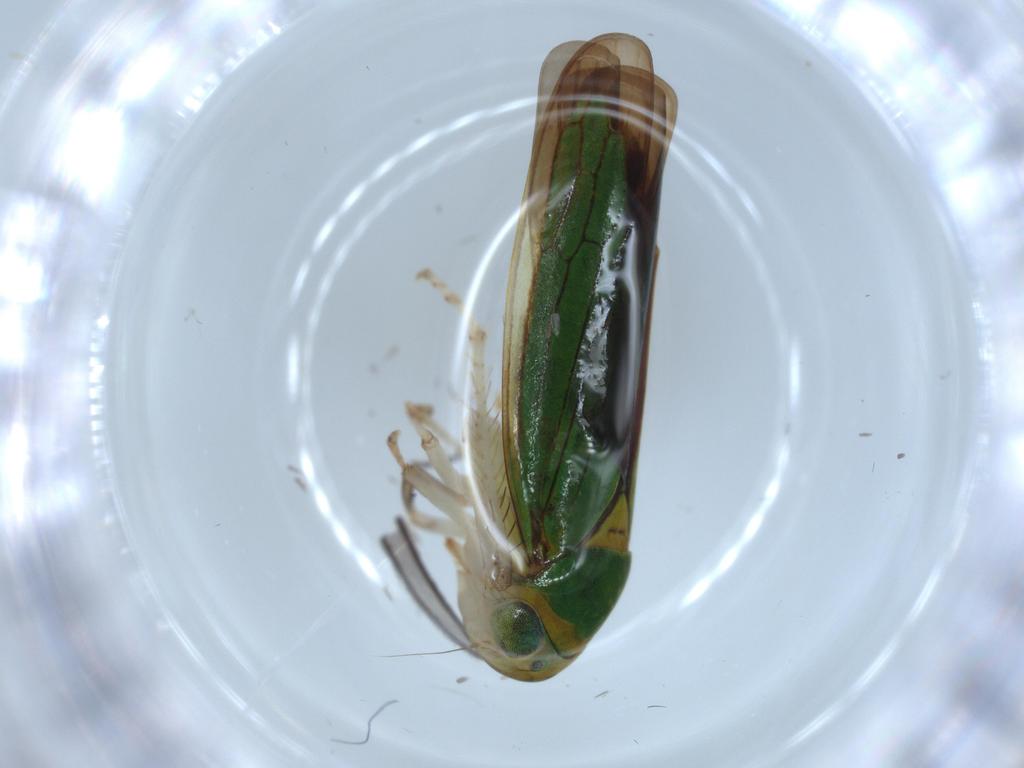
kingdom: Animalia
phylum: Arthropoda
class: Insecta
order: Hemiptera
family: Cicadellidae
